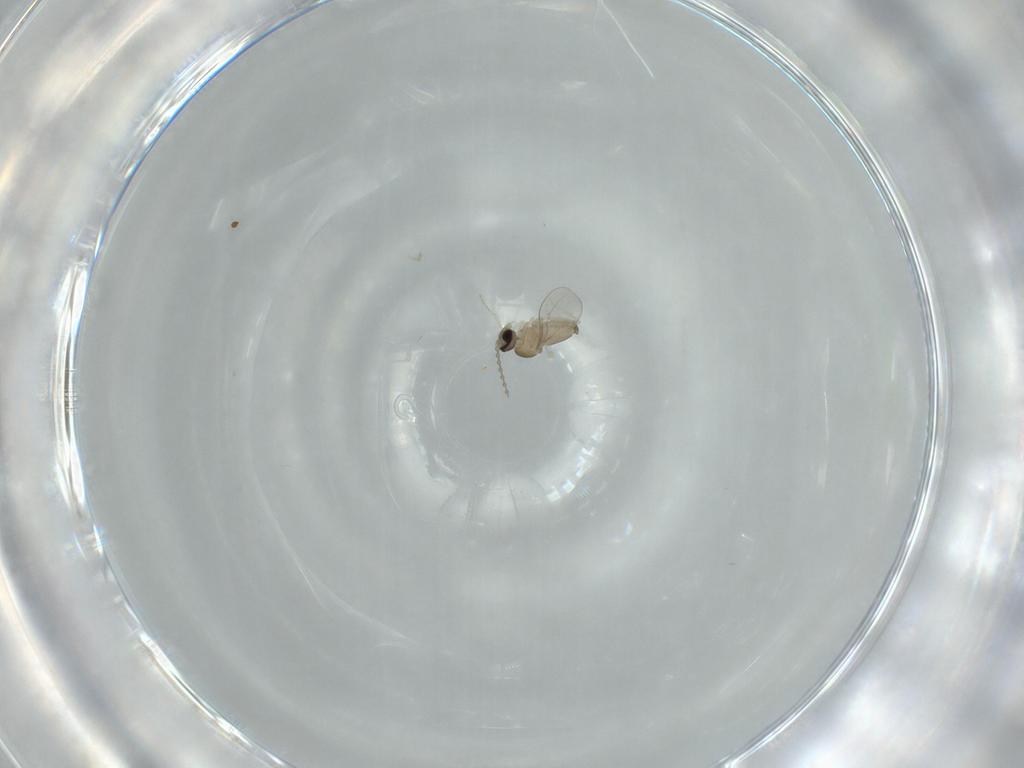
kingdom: Animalia
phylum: Arthropoda
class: Insecta
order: Diptera
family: Cecidomyiidae
